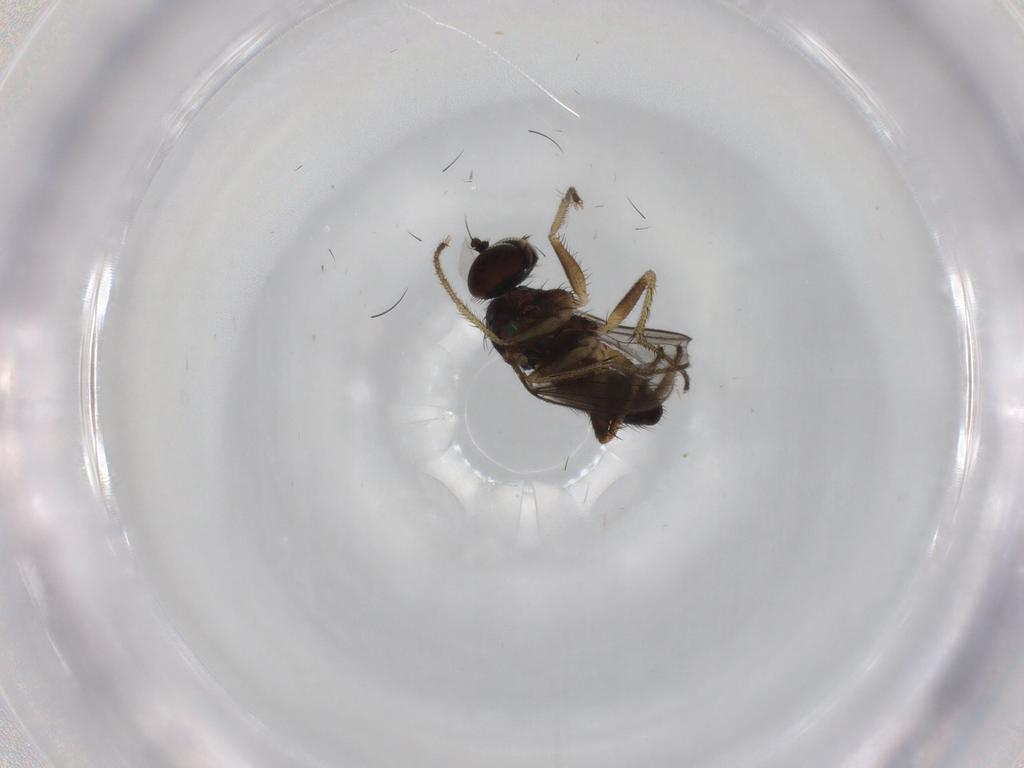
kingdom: Animalia
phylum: Arthropoda
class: Insecta
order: Diptera
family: Dolichopodidae
